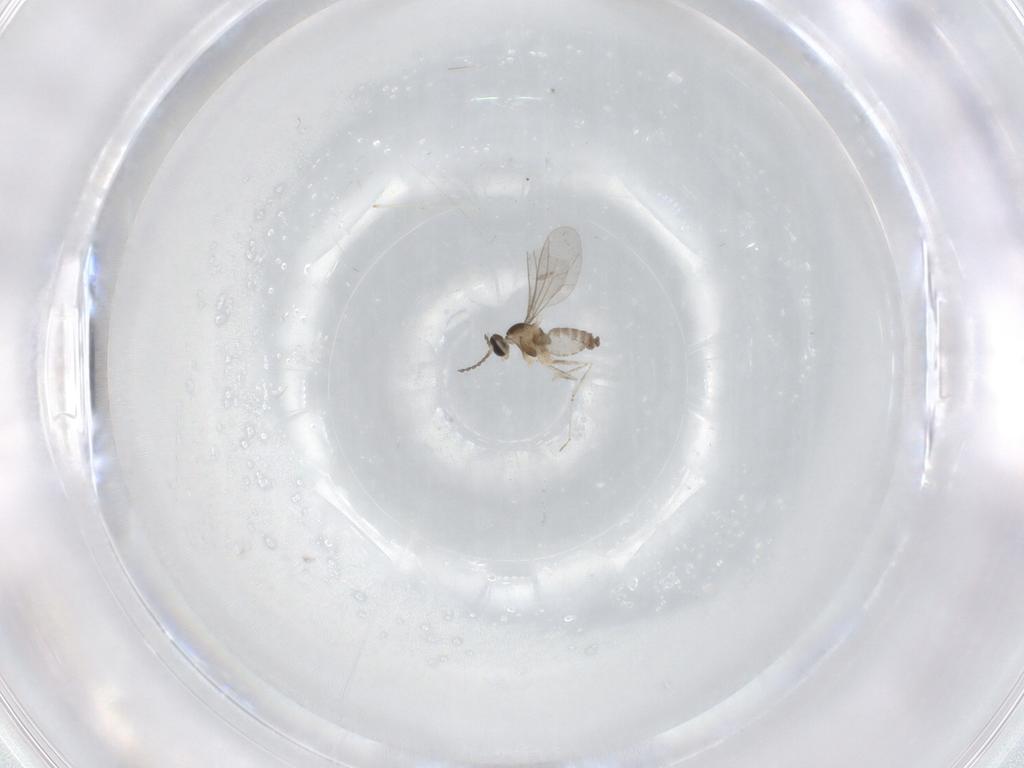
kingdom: Animalia
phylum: Arthropoda
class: Insecta
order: Diptera
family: Cecidomyiidae
